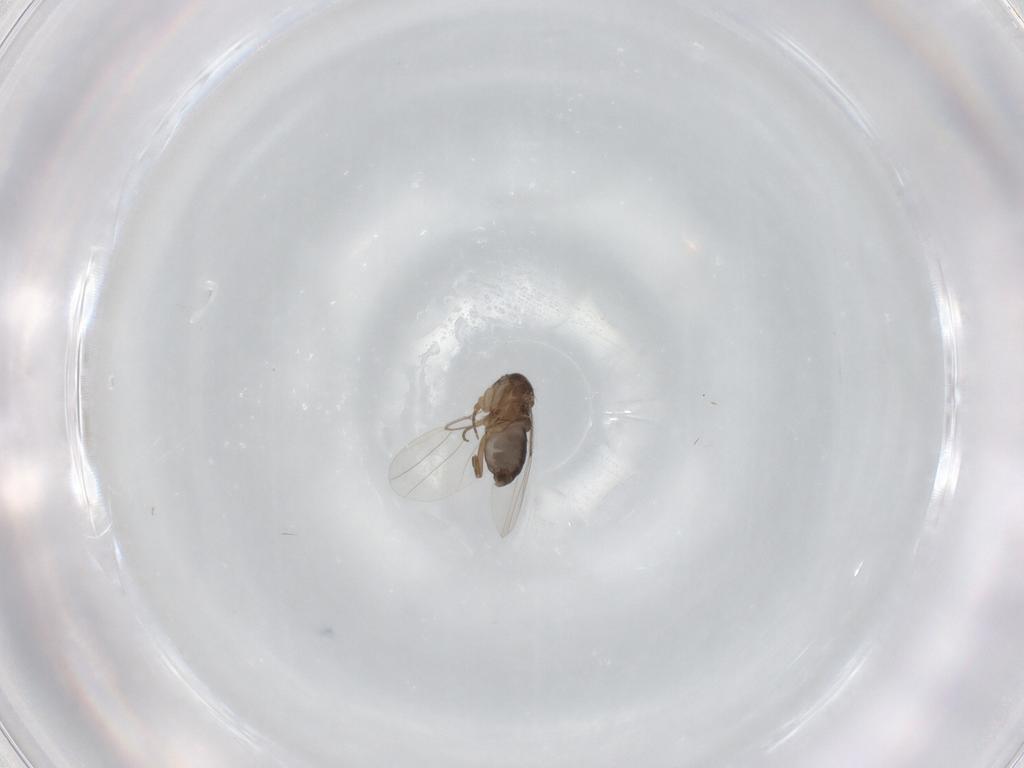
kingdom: Animalia
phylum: Arthropoda
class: Insecta
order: Diptera
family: Phoridae
